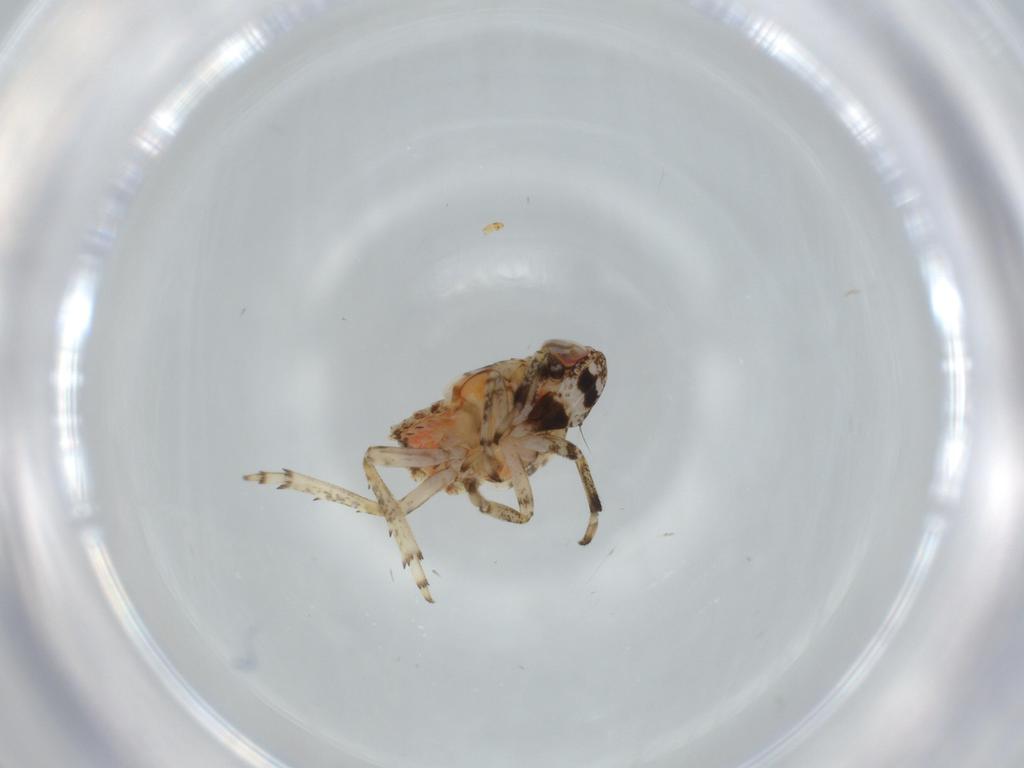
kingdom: Animalia
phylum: Arthropoda
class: Insecta
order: Hemiptera
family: Issidae
